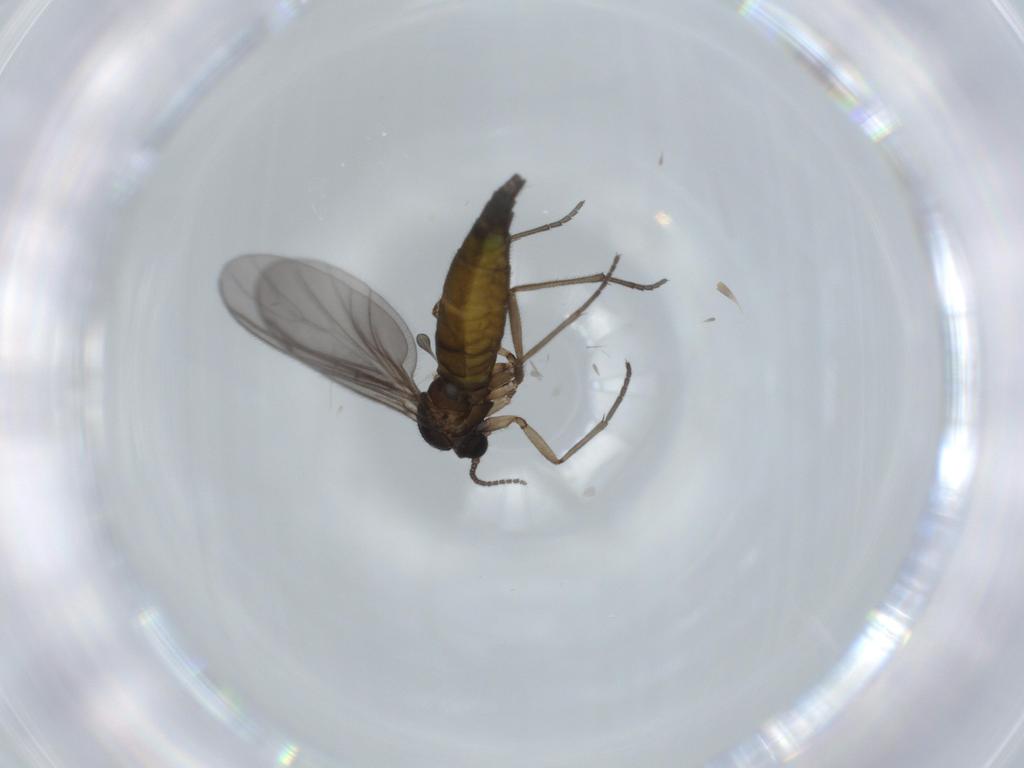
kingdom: Animalia
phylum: Arthropoda
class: Insecta
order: Diptera
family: Sciaridae
